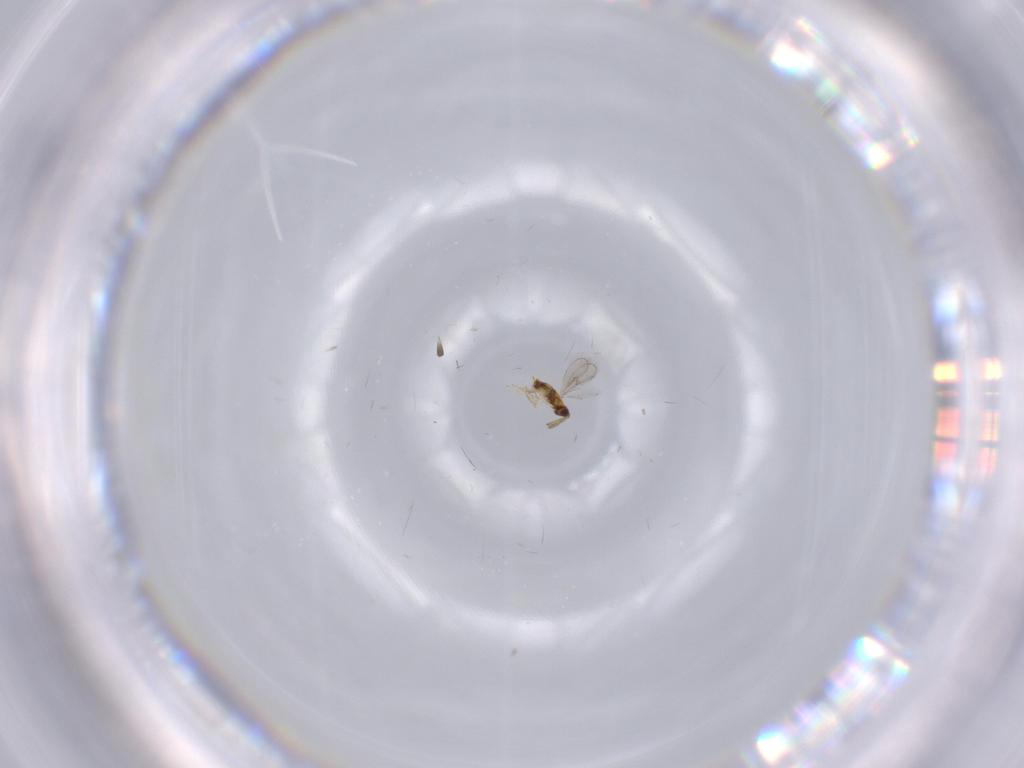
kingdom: Animalia
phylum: Arthropoda
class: Insecta
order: Hymenoptera
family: Aphelinidae
